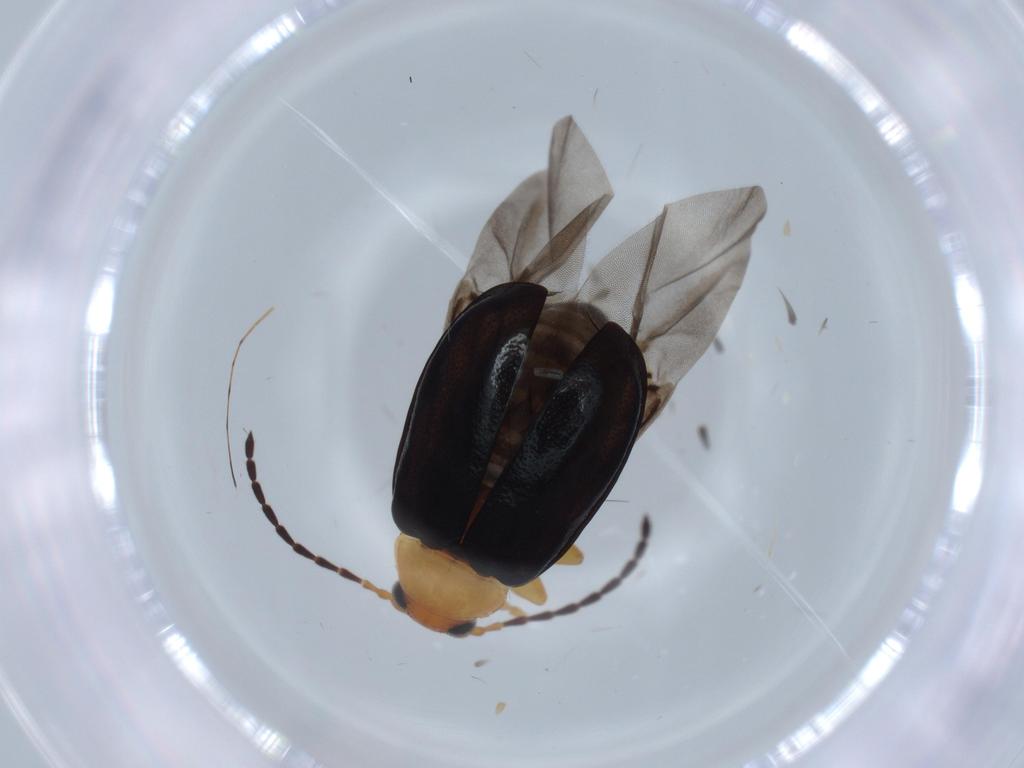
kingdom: Animalia
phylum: Arthropoda
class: Insecta
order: Coleoptera
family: Chrysomelidae
